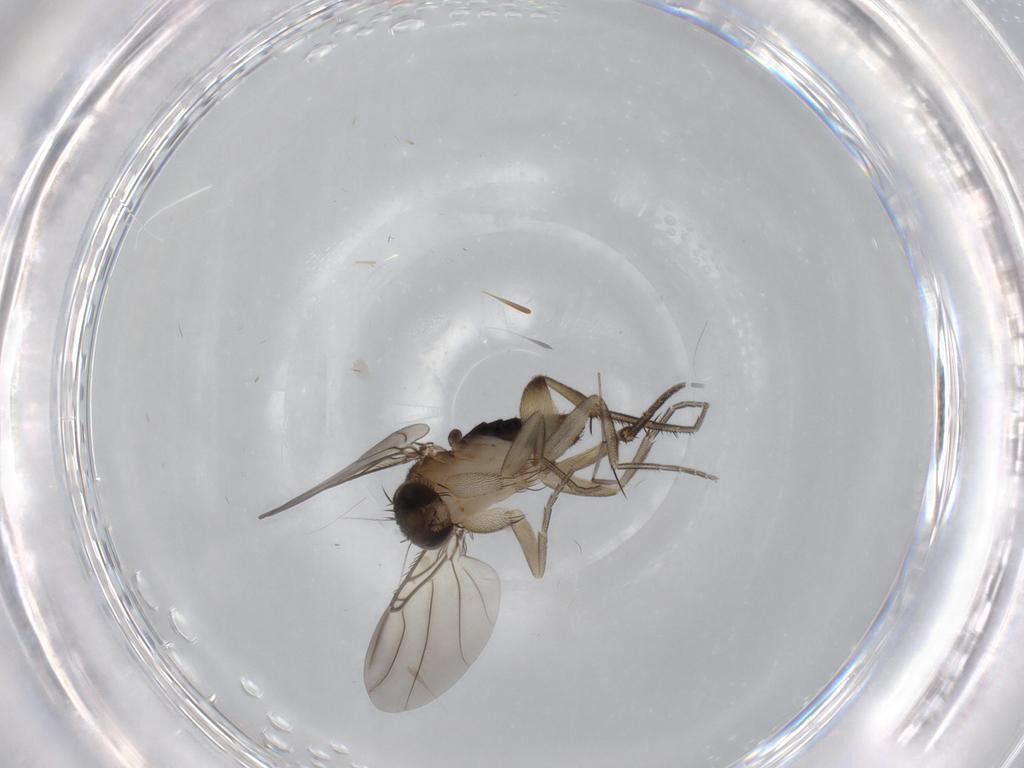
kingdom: Animalia
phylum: Arthropoda
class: Insecta
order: Diptera
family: Chironomidae
